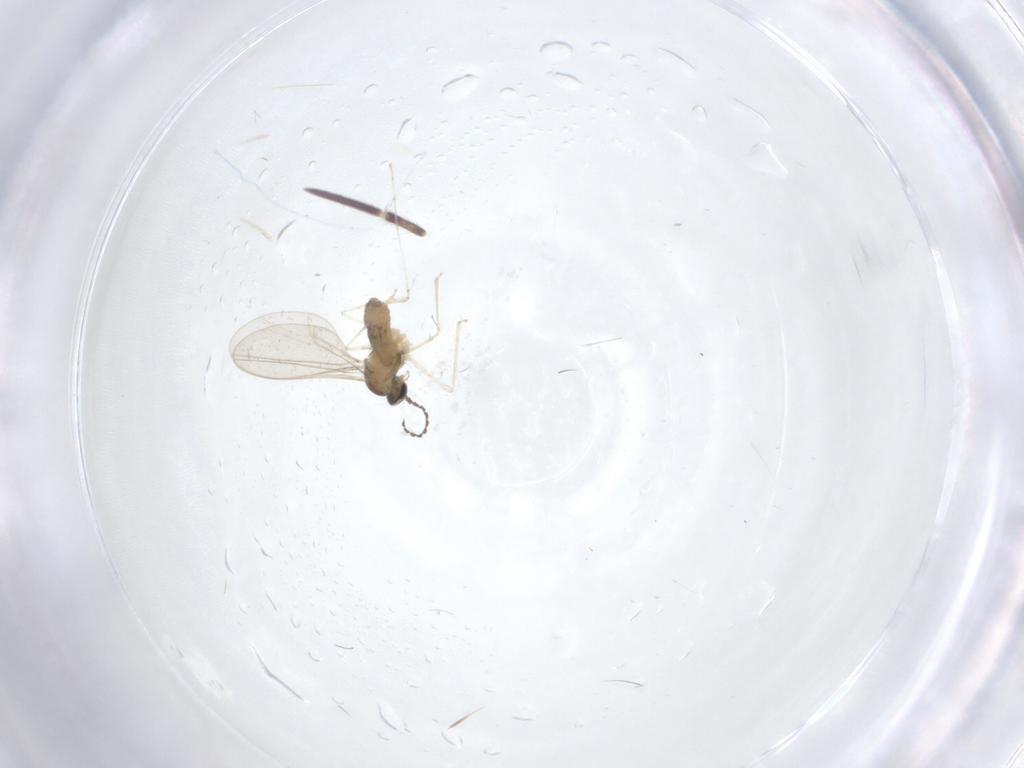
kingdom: Animalia
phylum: Arthropoda
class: Insecta
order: Diptera
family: Cecidomyiidae
